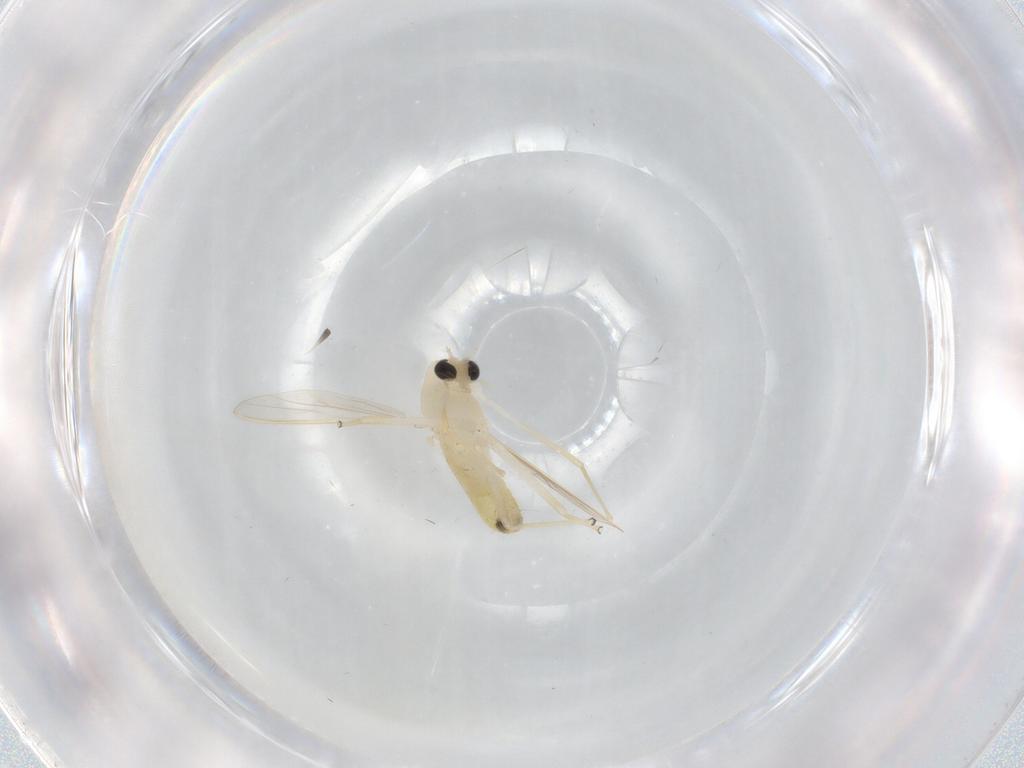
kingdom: Animalia
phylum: Arthropoda
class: Insecta
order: Diptera
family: Chironomidae
